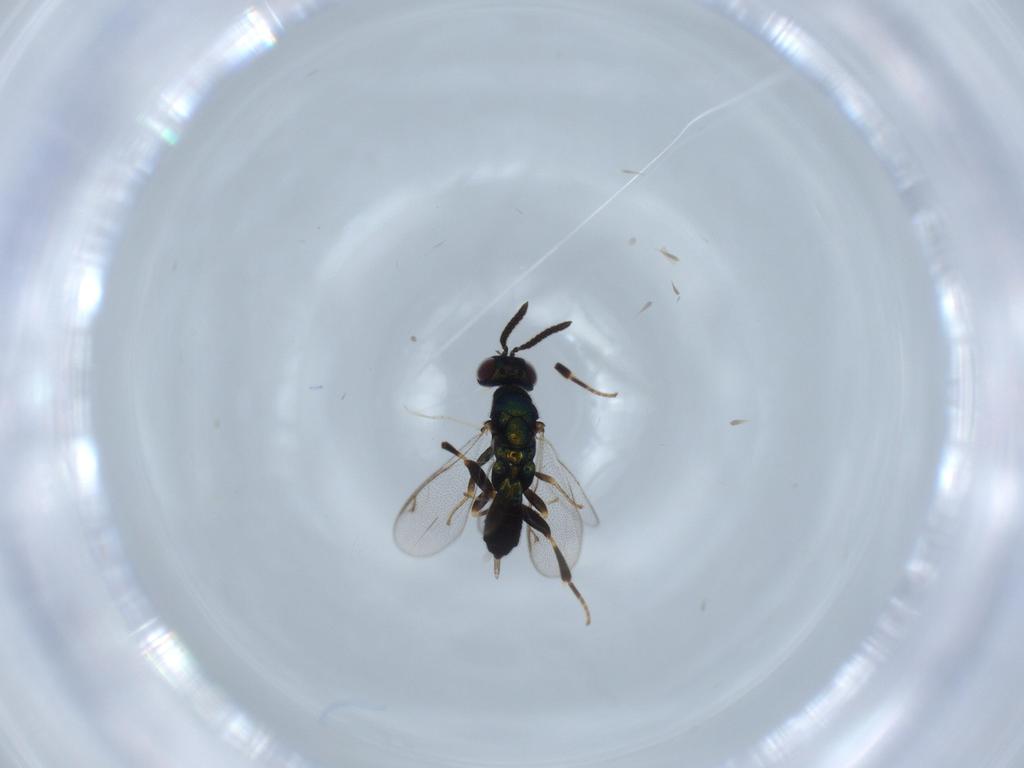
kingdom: Animalia
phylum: Arthropoda
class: Insecta
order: Hymenoptera
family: Cleonyminae
